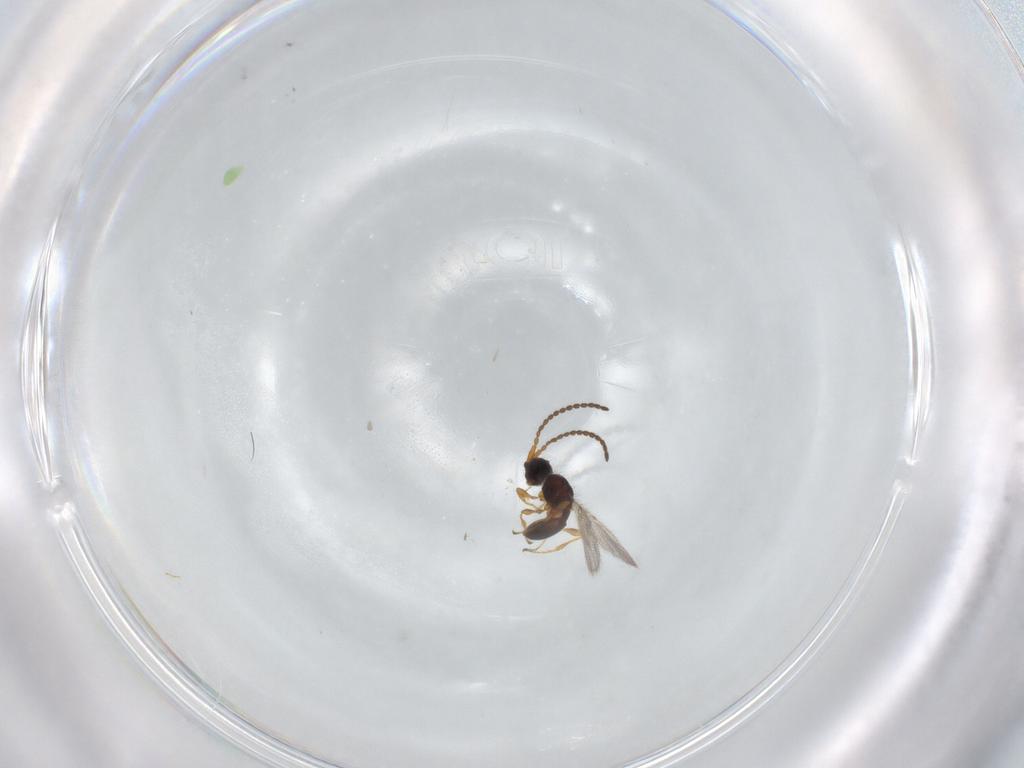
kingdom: Animalia
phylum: Arthropoda
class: Insecta
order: Hymenoptera
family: Diapriidae
